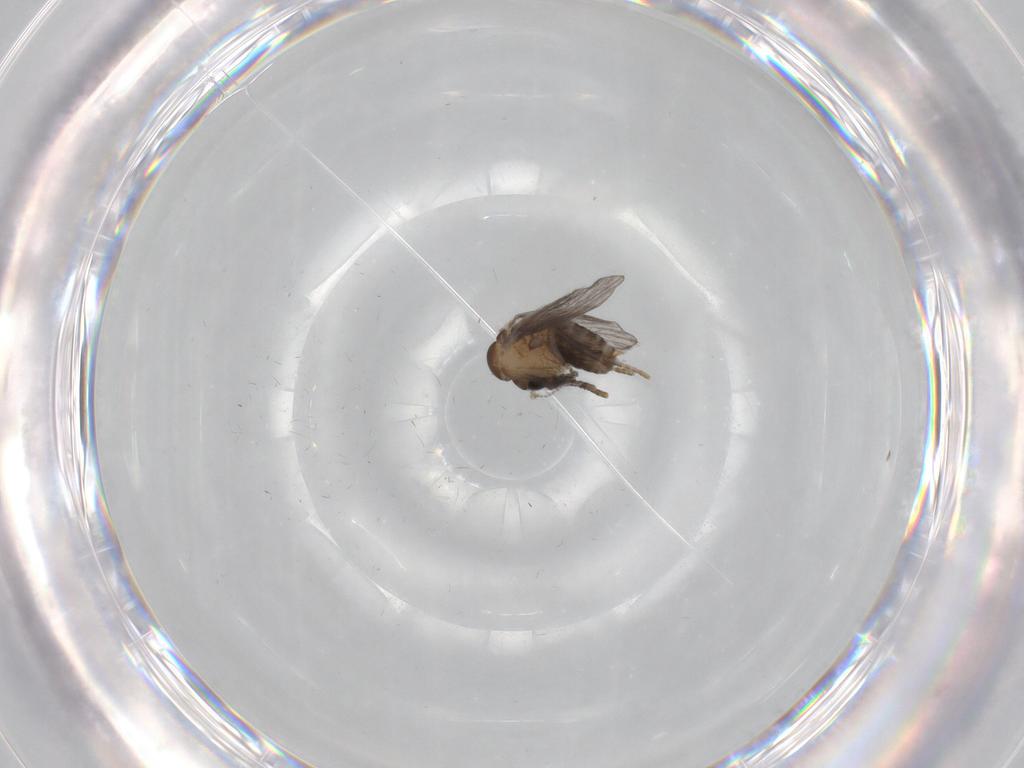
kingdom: Animalia
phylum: Arthropoda
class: Insecta
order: Diptera
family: Psychodidae
